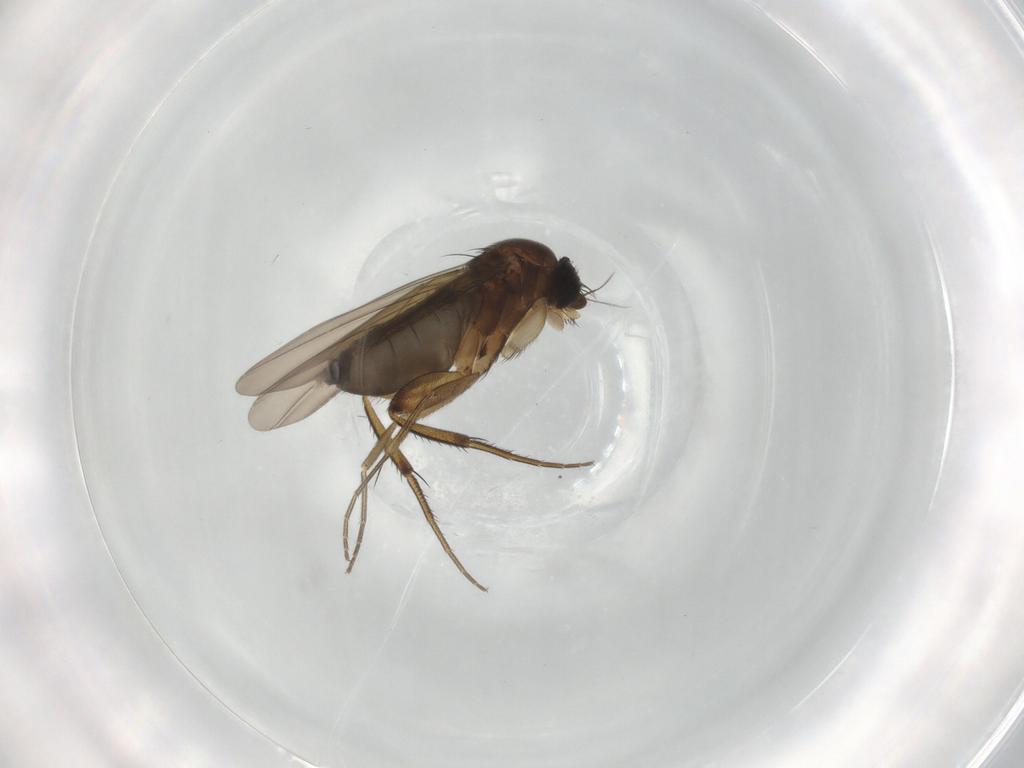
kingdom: Animalia
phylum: Arthropoda
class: Insecta
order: Diptera
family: Phoridae
